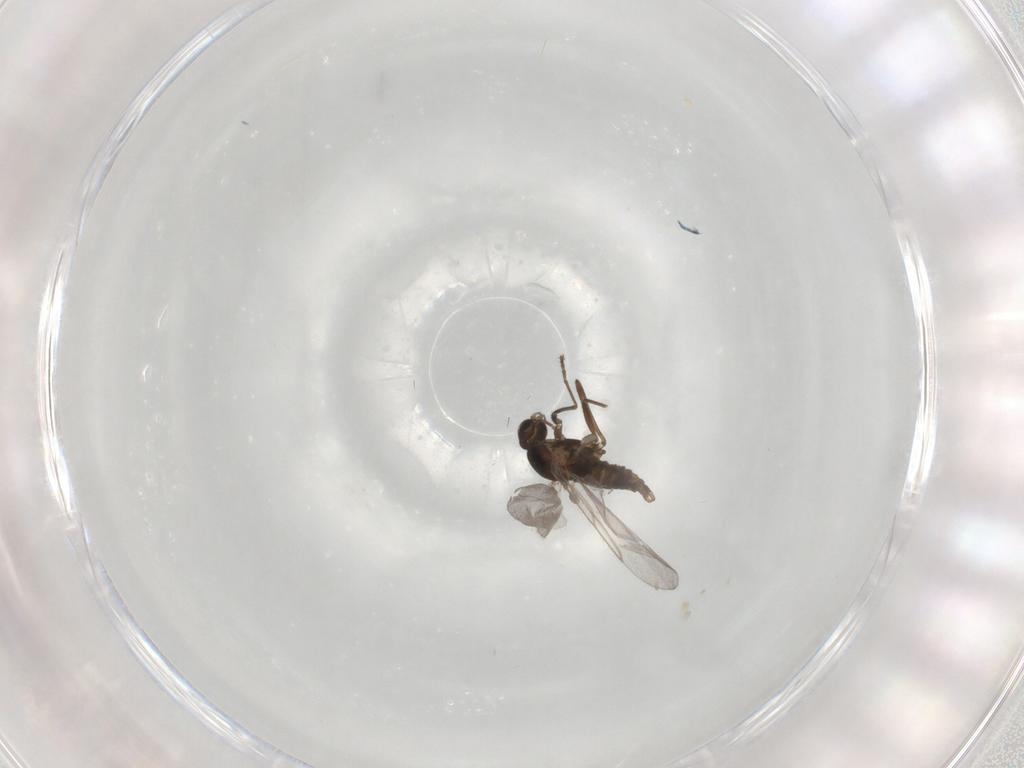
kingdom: Animalia
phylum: Arthropoda
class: Insecta
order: Diptera
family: Cecidomyiidae
